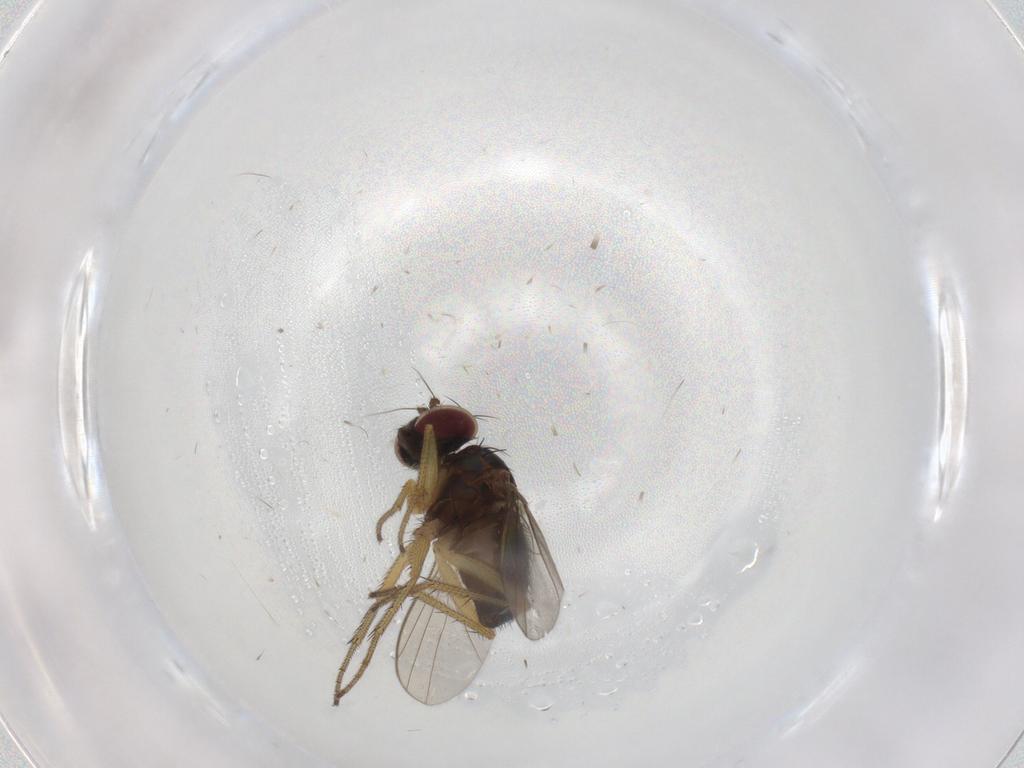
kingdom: Animalia
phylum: Arthropoda
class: Insecta
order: Diptera
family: Dolichopodidae
